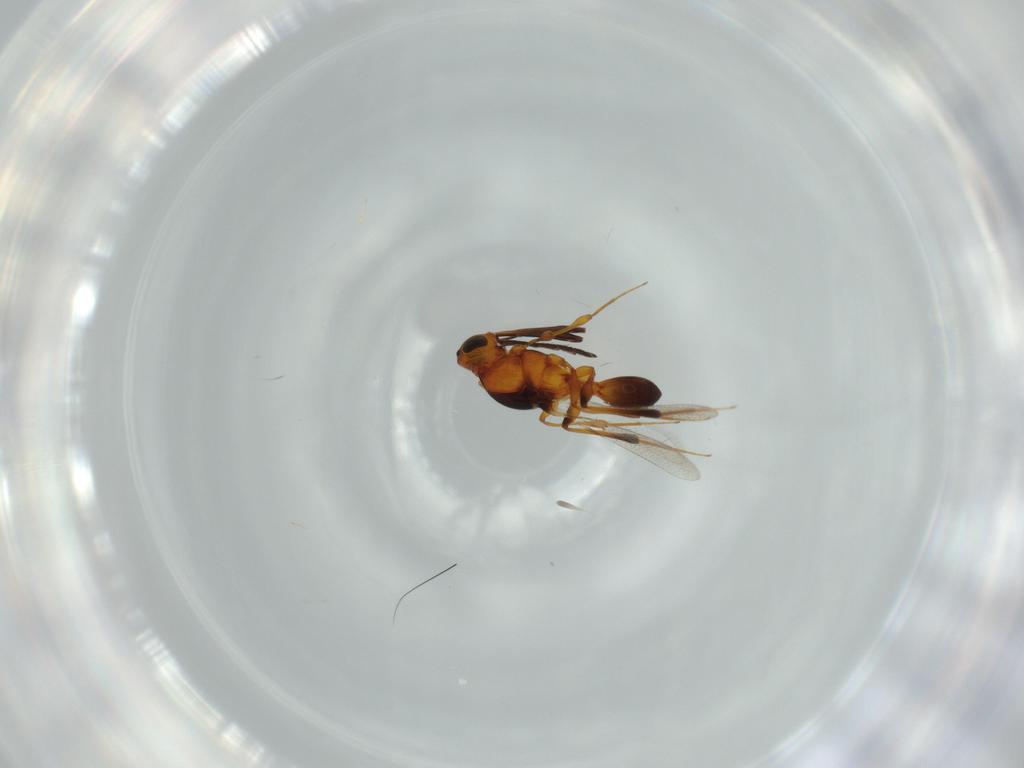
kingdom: Animalia
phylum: Arthropoda
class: Insecta
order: Hymenoptera
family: Platygastridae
